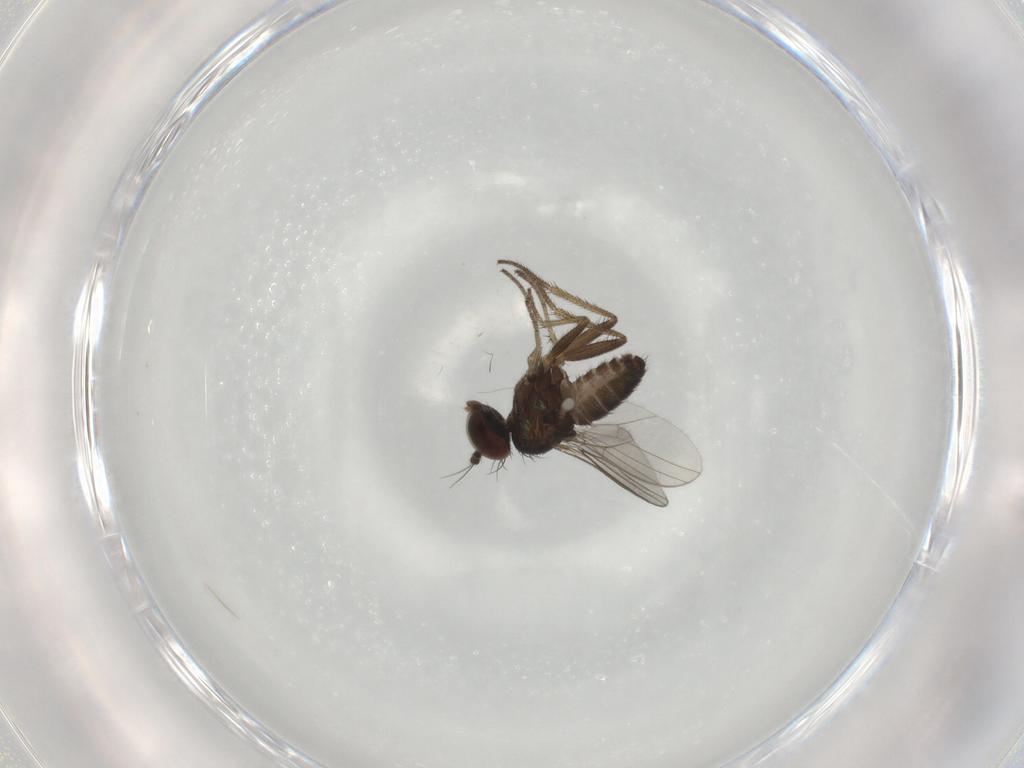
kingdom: Animalia
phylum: Arthropoda
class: Insecta
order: Diptera
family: Dolichopodidae
